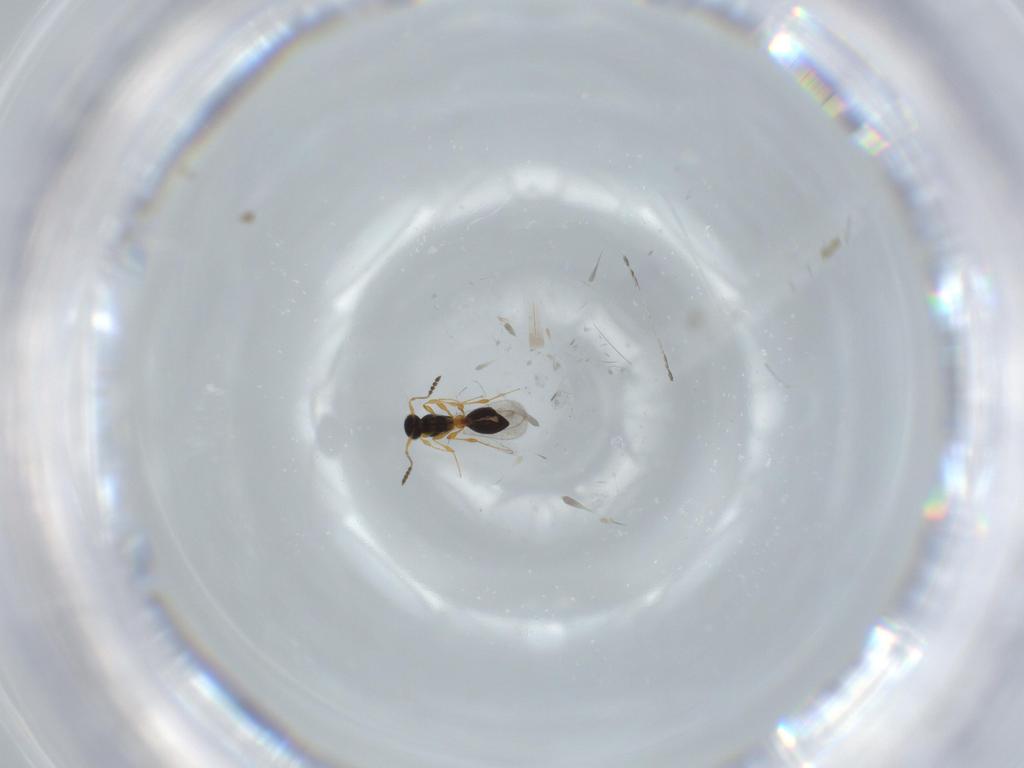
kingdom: Animalia
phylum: Arthropoda
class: Insecta
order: Hymenoptera
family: Platygastridae
